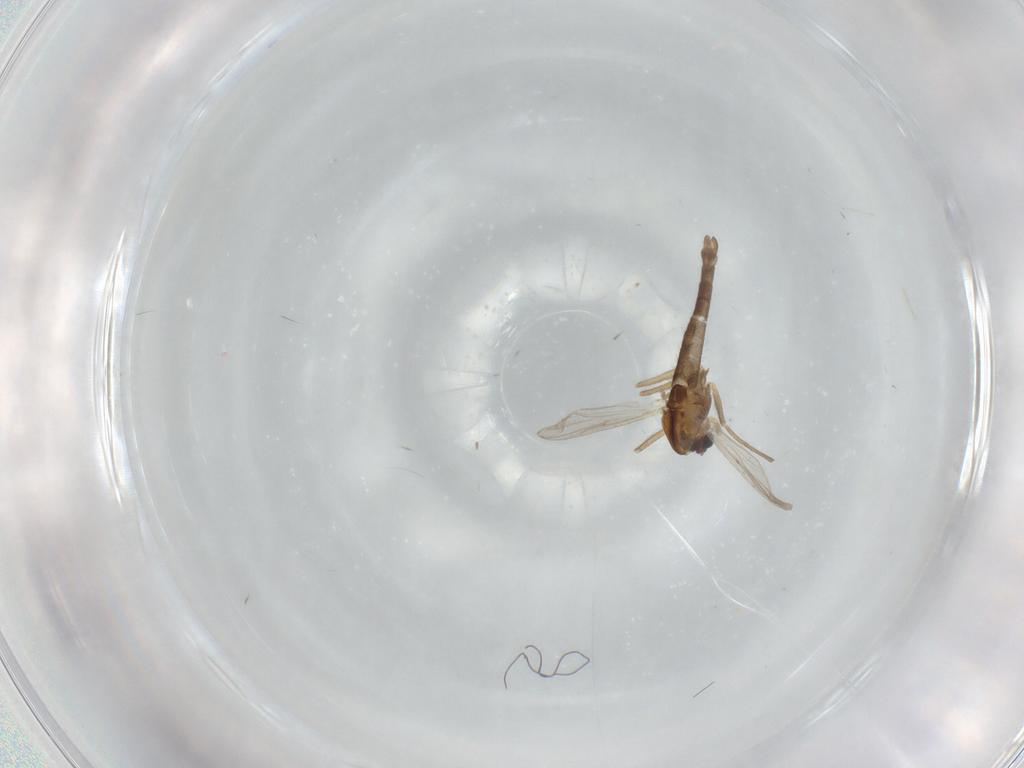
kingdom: Animalia
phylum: Arthropoda
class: Insecta
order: Diptera
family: Chironomidae
